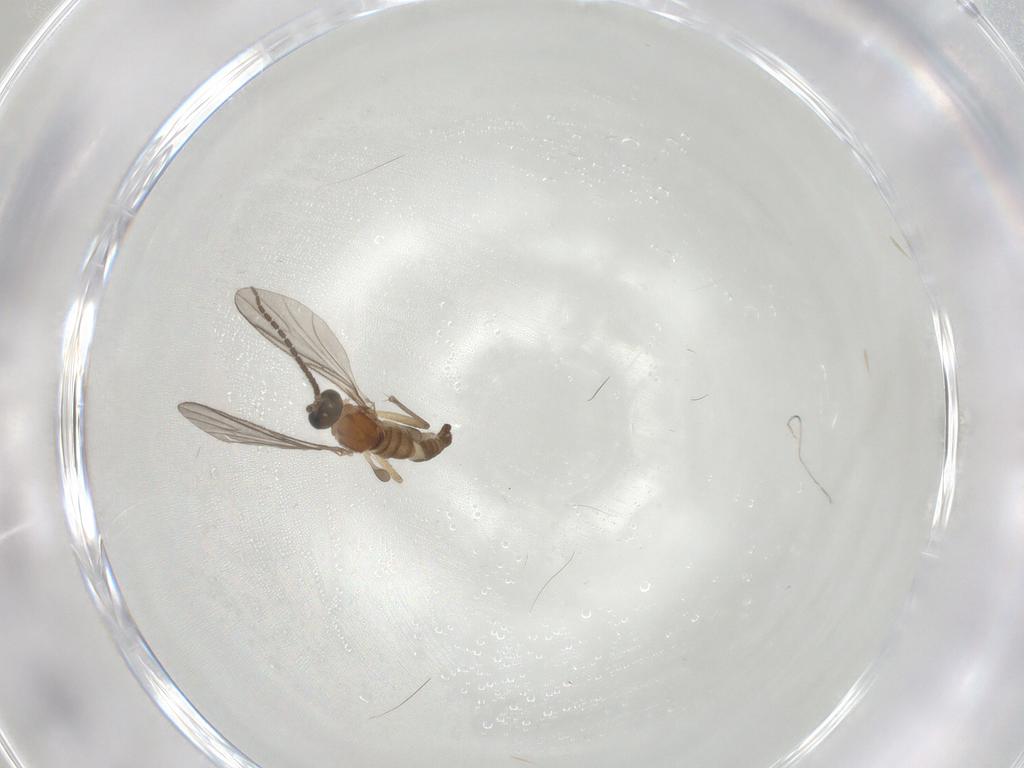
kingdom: Animalia
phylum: Arthropoda
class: Insecta
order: Diptera
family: Sciaridae
